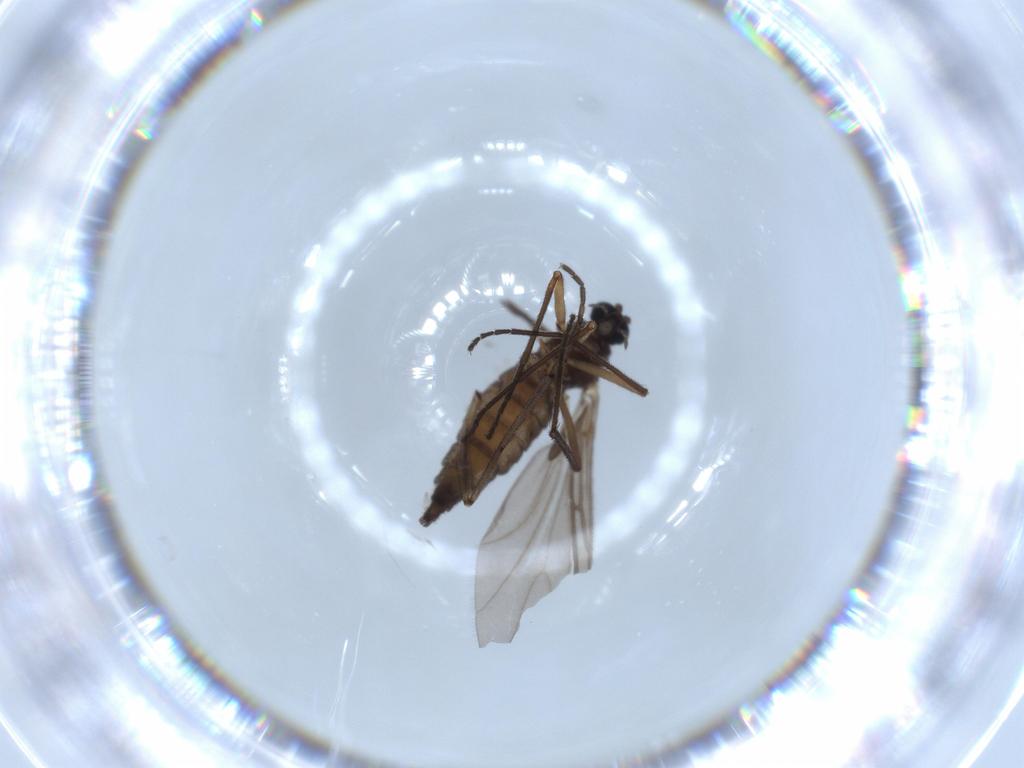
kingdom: Animalia
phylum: Arthropoda
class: Insecta
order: Diptera
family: Sciaridae
